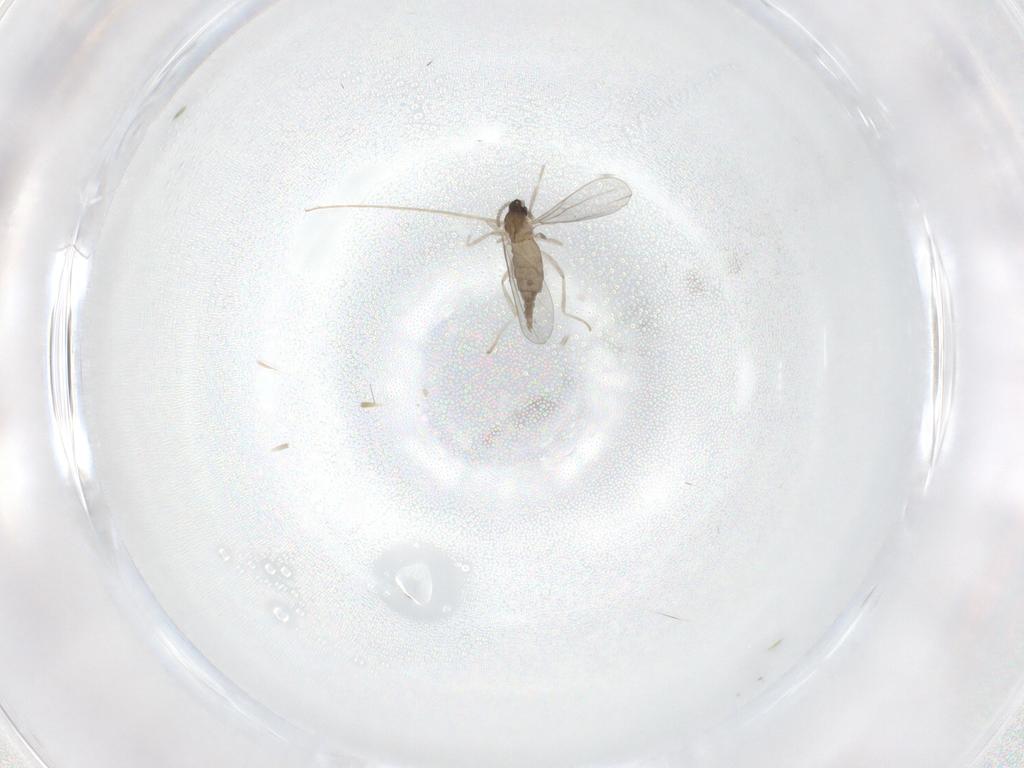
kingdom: Animalia
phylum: Arthropoda
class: Insecta
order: Diptera
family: Cecidomyiidae
